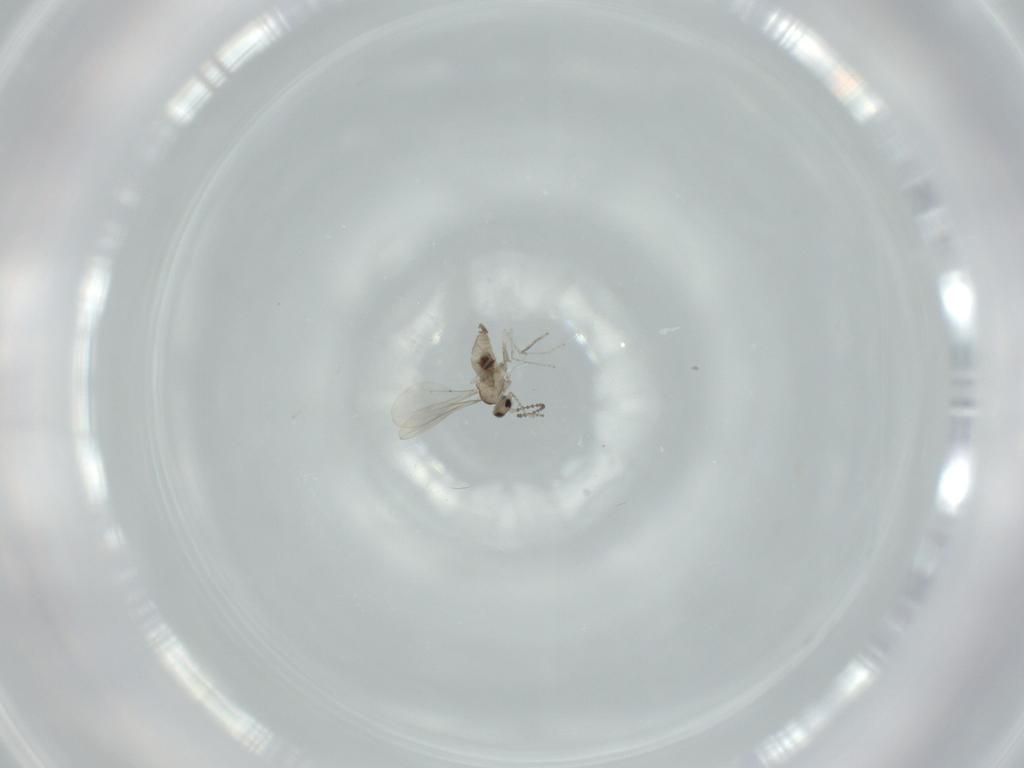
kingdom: Animalia
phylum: Arthropoda
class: Insecta
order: Diptera
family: Cecidomyiidae
